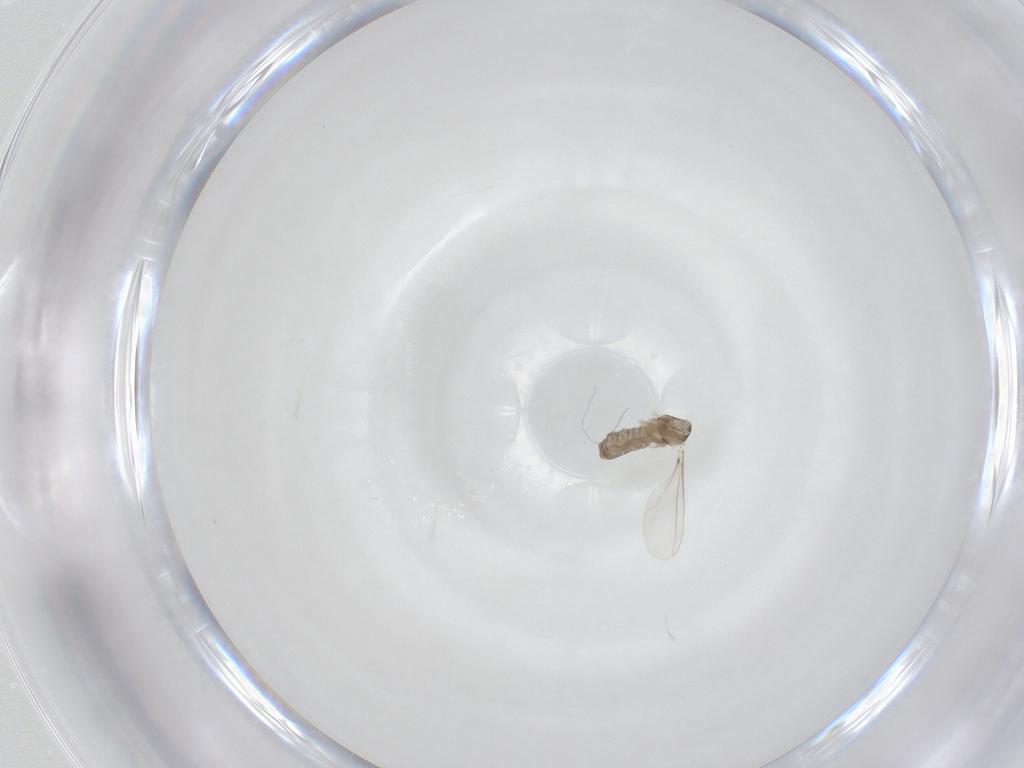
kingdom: Animalia
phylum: Arthropoda
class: Insecta
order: Diptera
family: Cecidomyiidae
